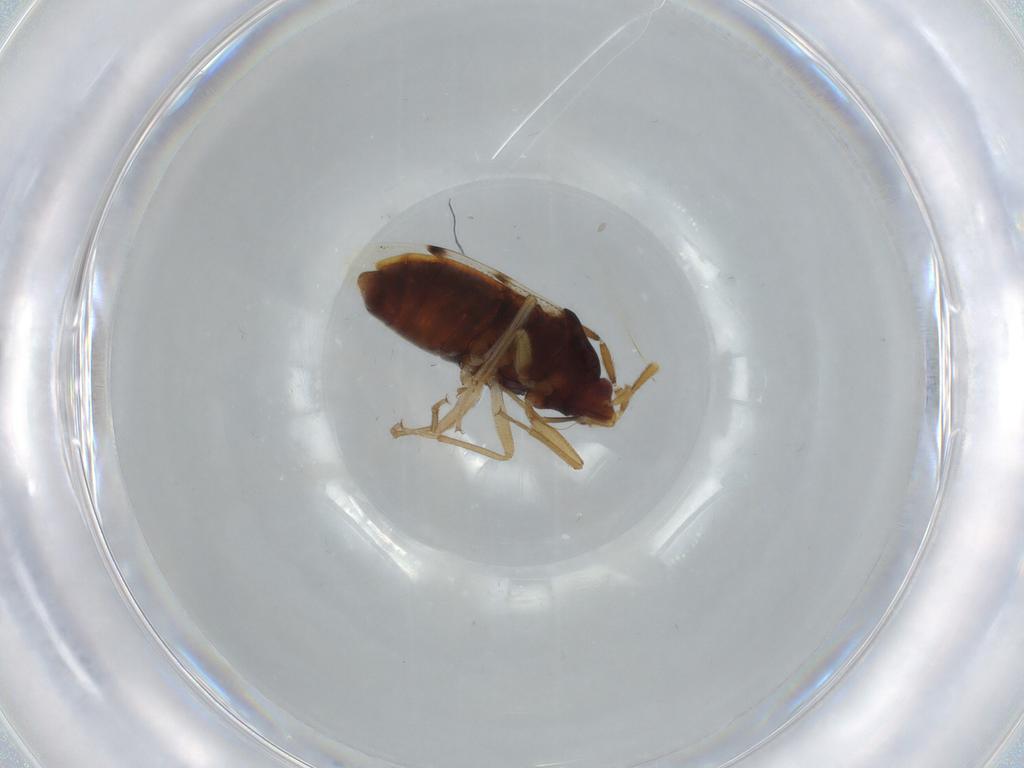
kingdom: Animalia
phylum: Arthropoda
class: Insecta
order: Hemiptera
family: Rhyparochromidae
